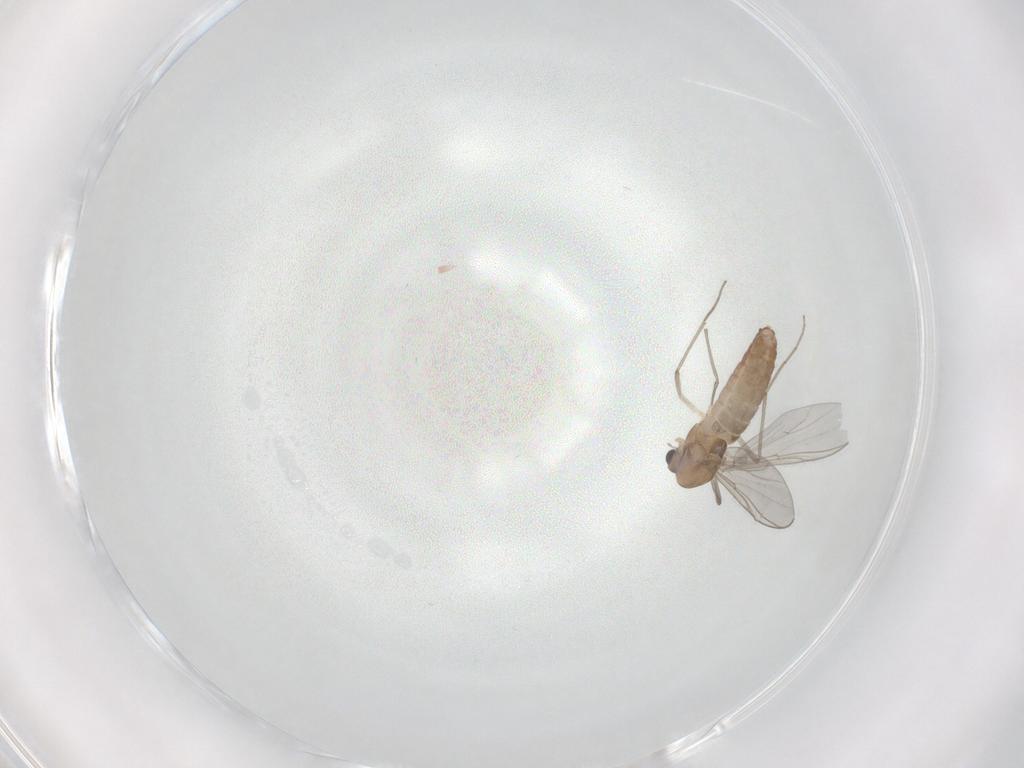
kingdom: Animalia
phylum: Arthropoda
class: Insecta
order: Diptera
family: Chironomidae
